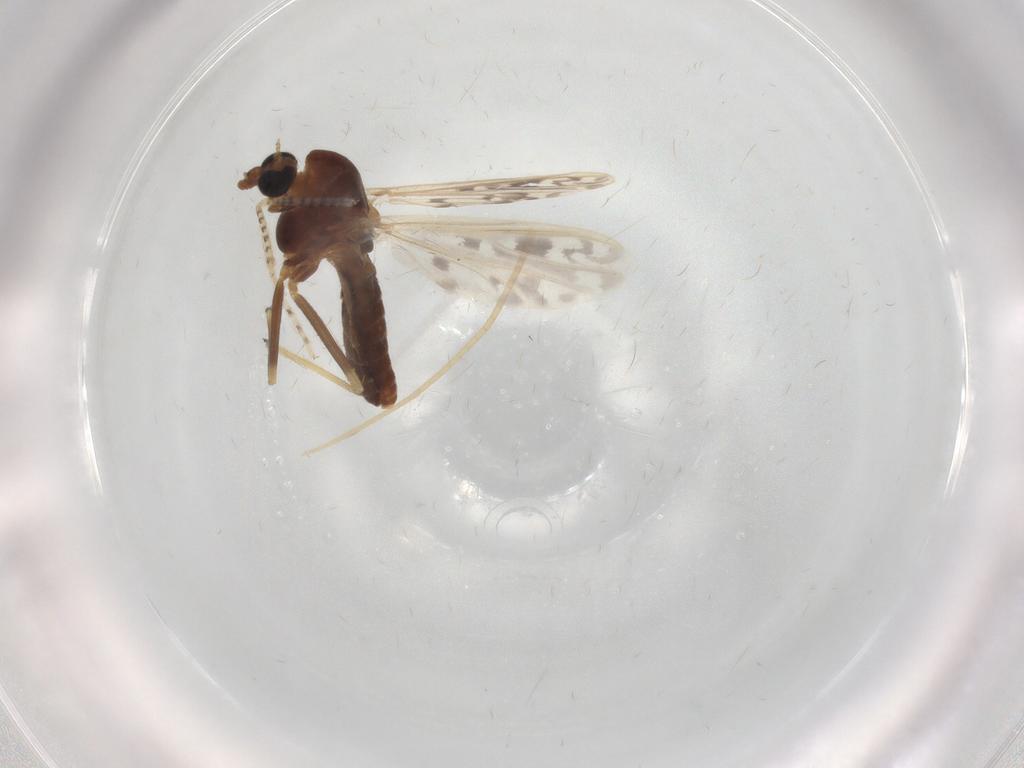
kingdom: Animalia
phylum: Arthropoda
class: Insecta
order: Diptera
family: Chironomidae
